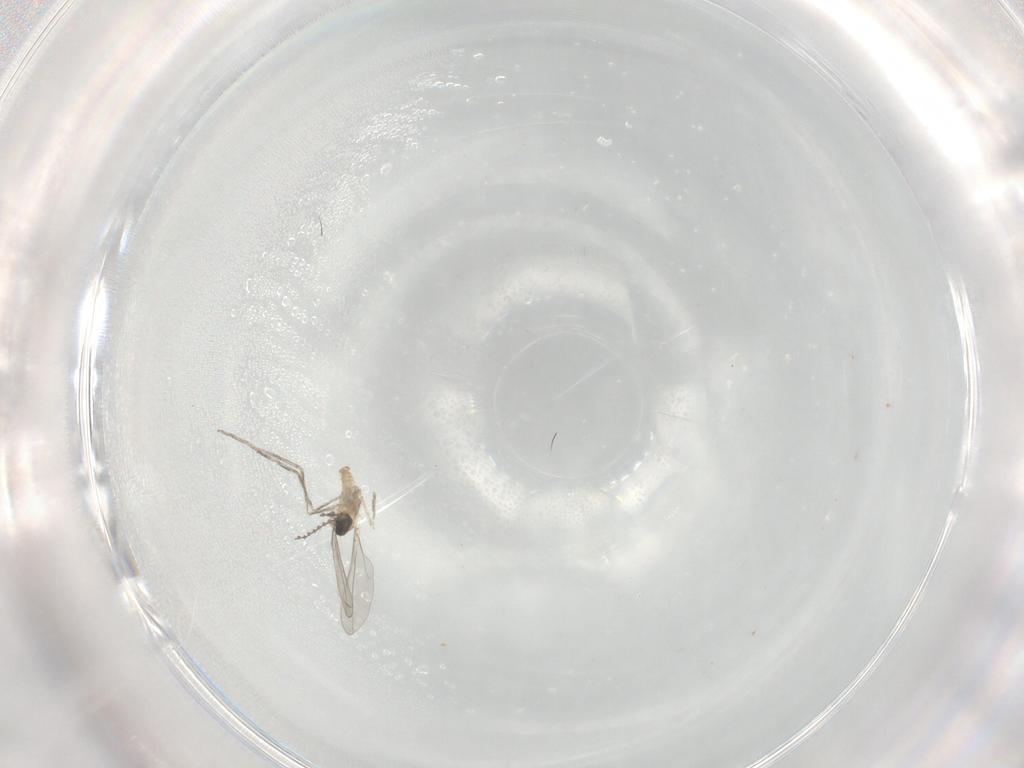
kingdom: Animalia
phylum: Arthropoda
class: Insecta
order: Diptera
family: Cecidomyiidae
